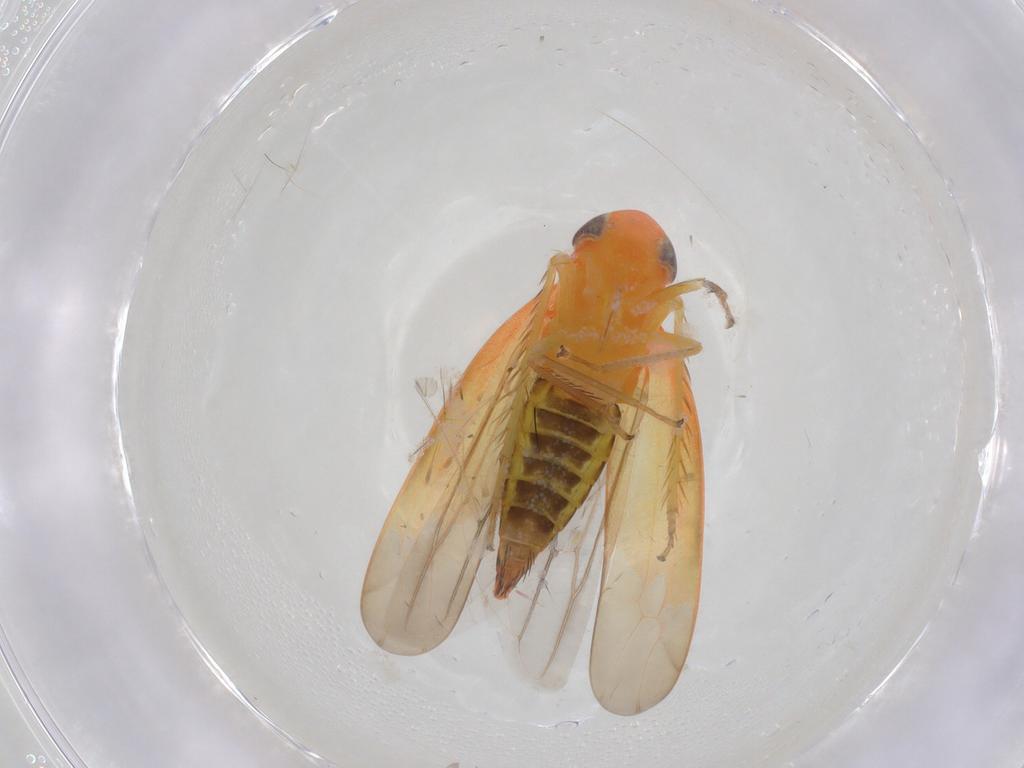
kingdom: Animalia
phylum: Arthropoda
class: Insecta
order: Hemiptera
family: Cicadellidae
